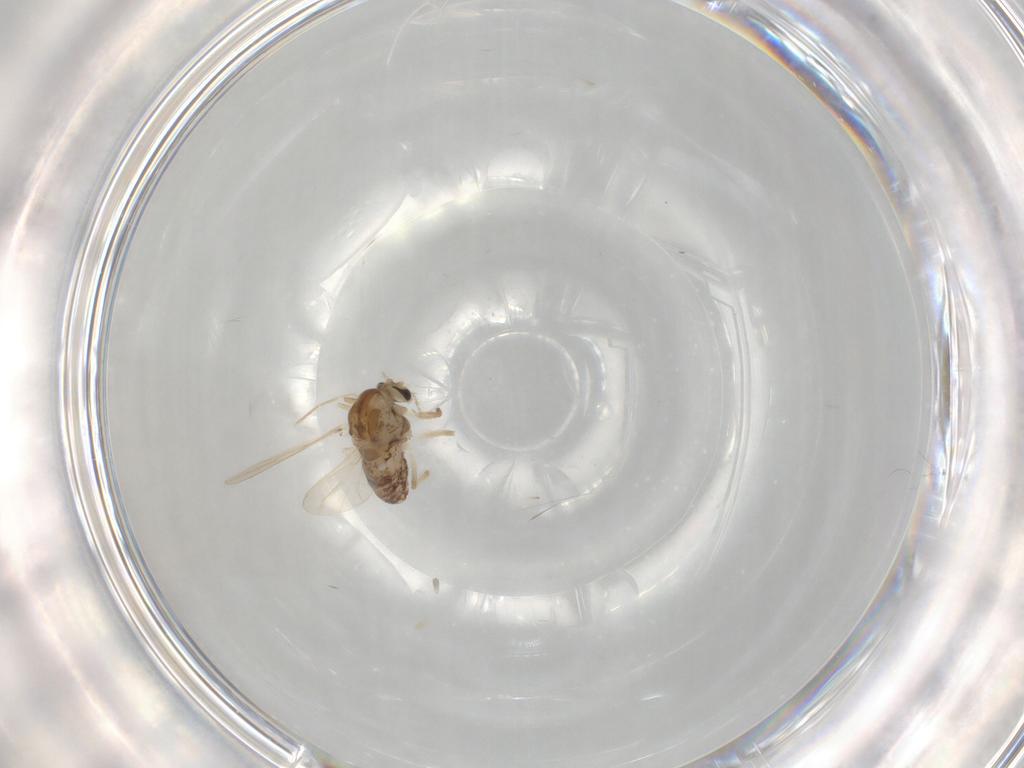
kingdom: Animalia
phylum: Arthropoda
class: Insecta
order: Diptera
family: Chironomidae
